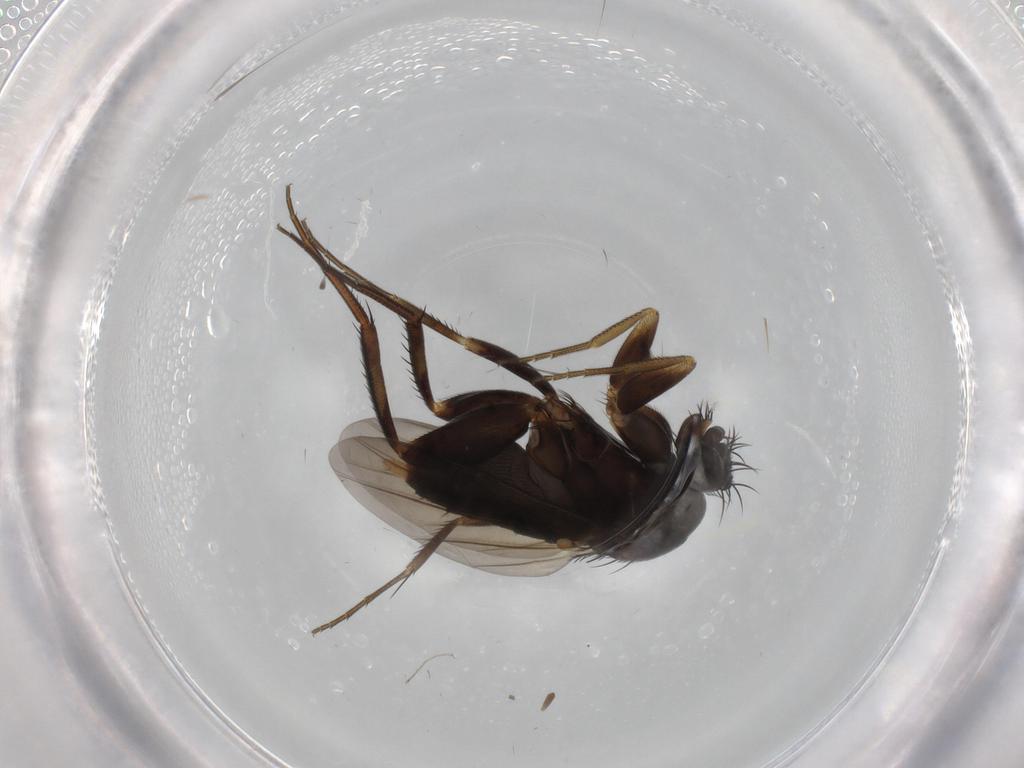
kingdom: Animalia
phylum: Arthropoda
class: Insecta
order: Diptera
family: Phoridae
